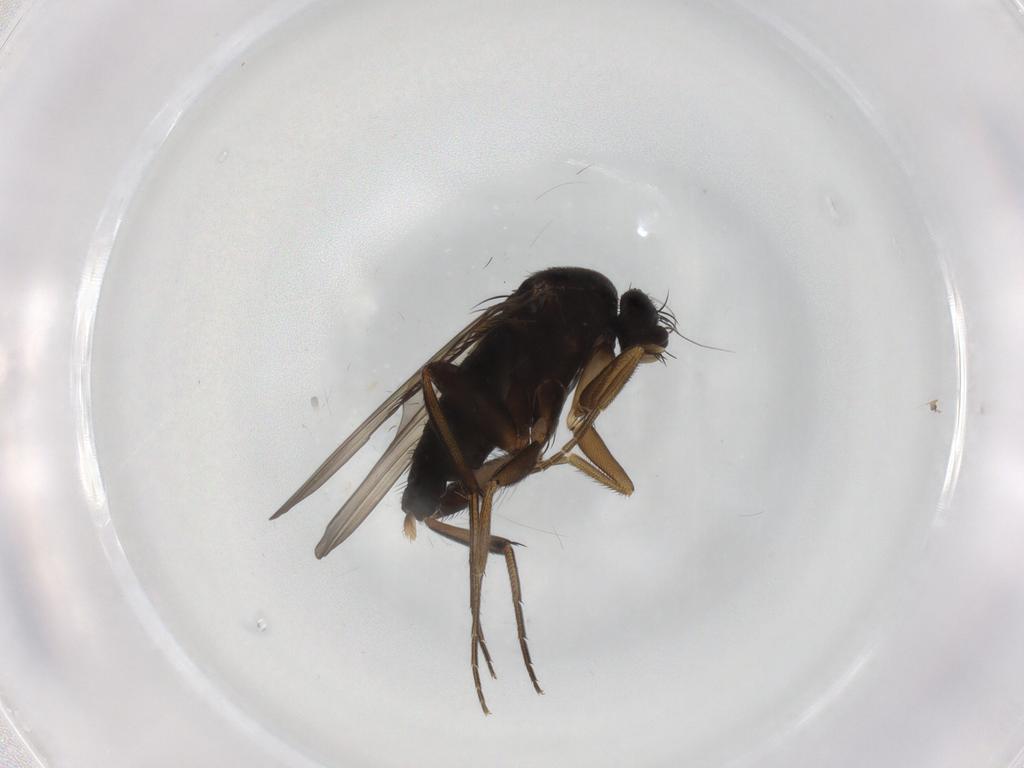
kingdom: Animalia
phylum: Arthropoda
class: Insecta
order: Diptera
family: Phoridae
